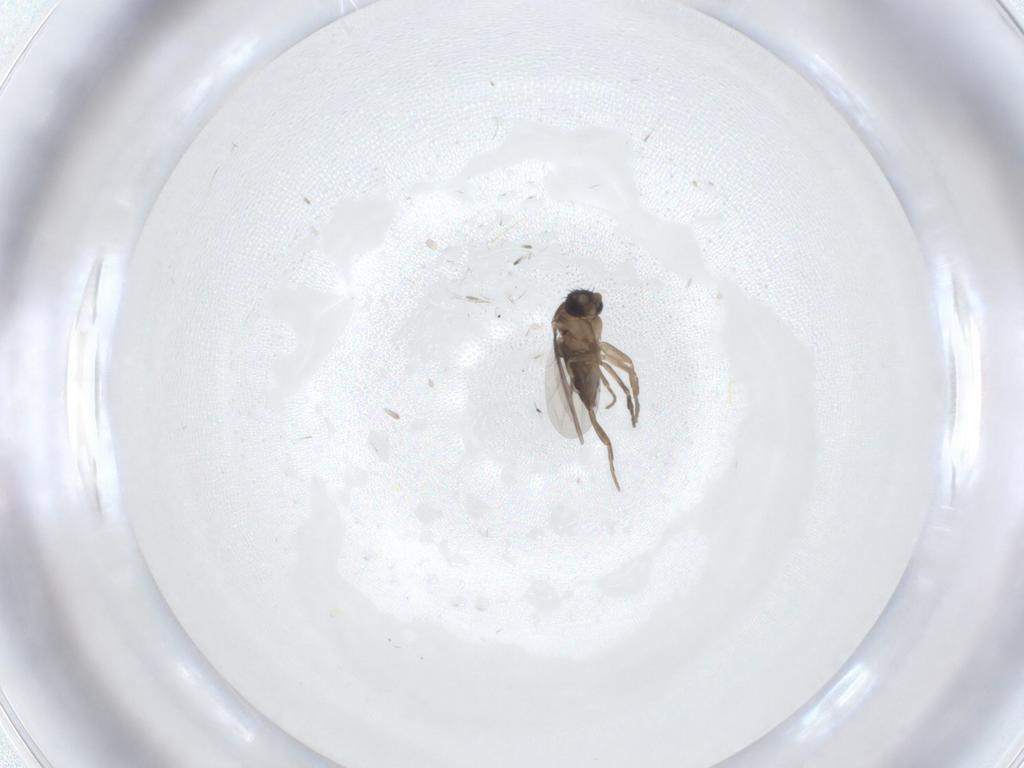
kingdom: Animalia
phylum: Arthropoda
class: Insecta
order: Diptera
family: Phoridae
